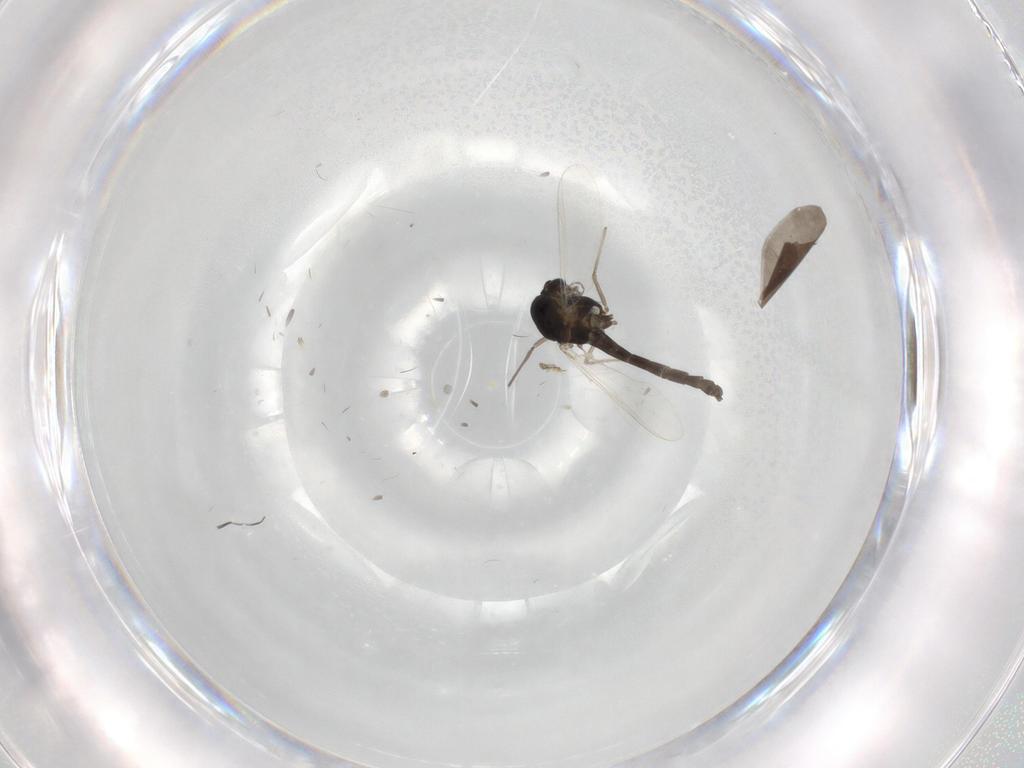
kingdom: Animalia
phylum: Arthropoda
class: Insecta
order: Diptera
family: Chironomidae
